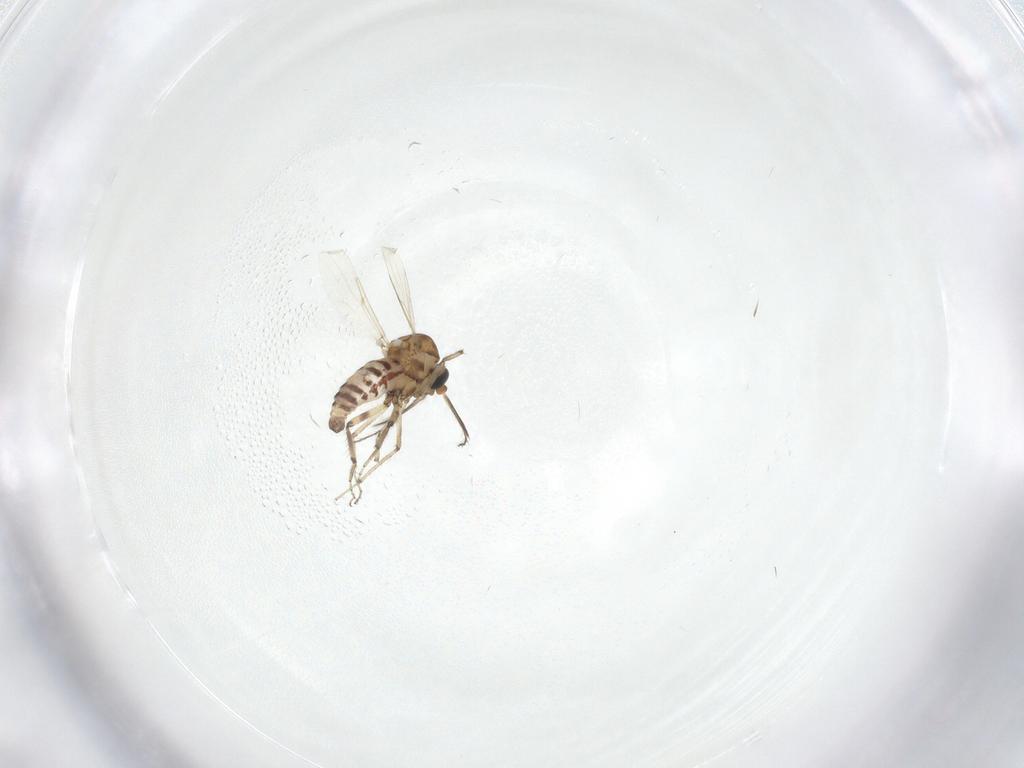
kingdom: Animalia
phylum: Arthropoda
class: Insecta
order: Diptera
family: Ceratopogonidae
